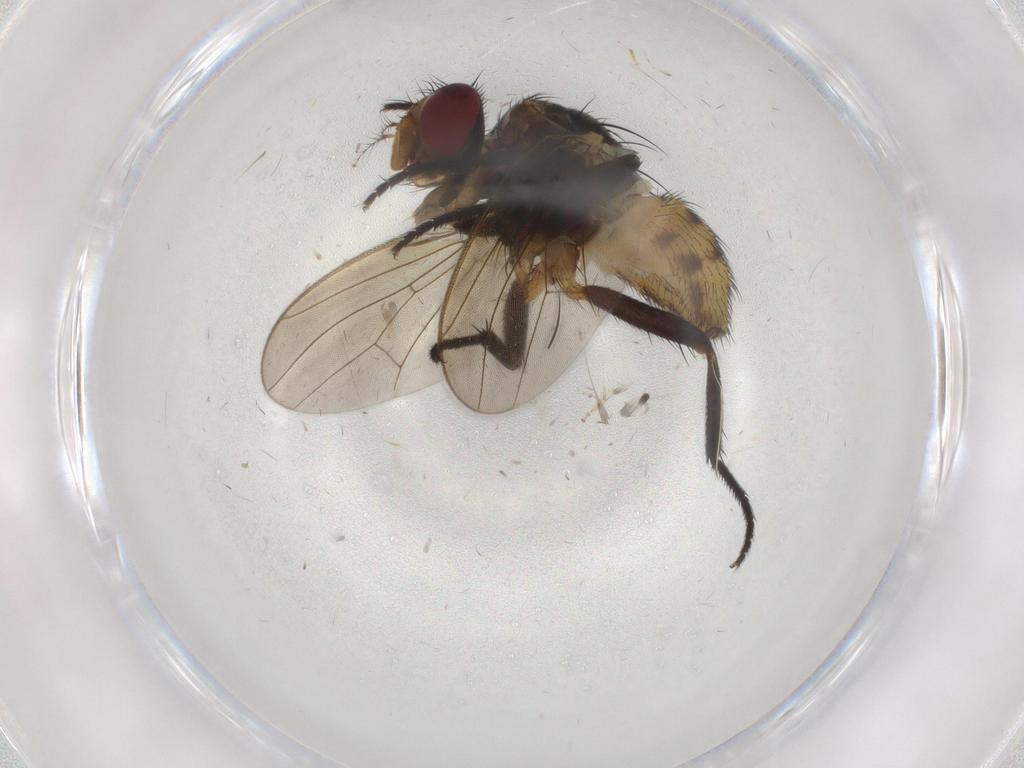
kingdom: Animalia
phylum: Arthropoda
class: Insecta
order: Diptera
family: Anthomyiidae
